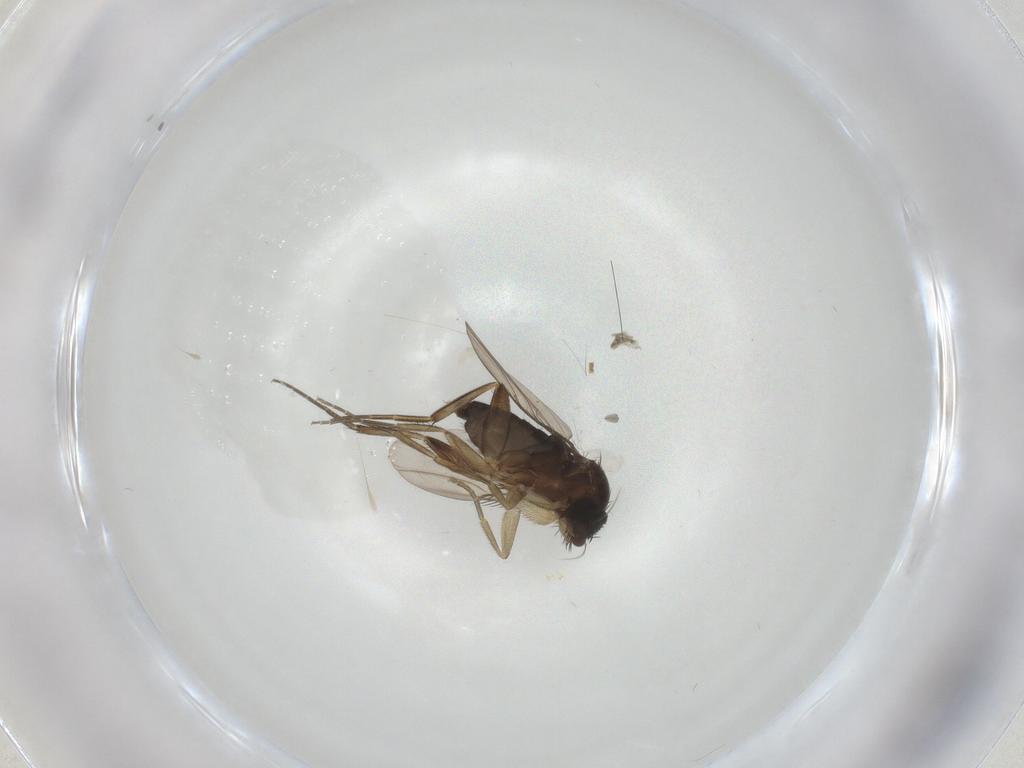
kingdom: Animalia
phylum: Arthropoda
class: Insecta
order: Diptera
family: Phoridae
